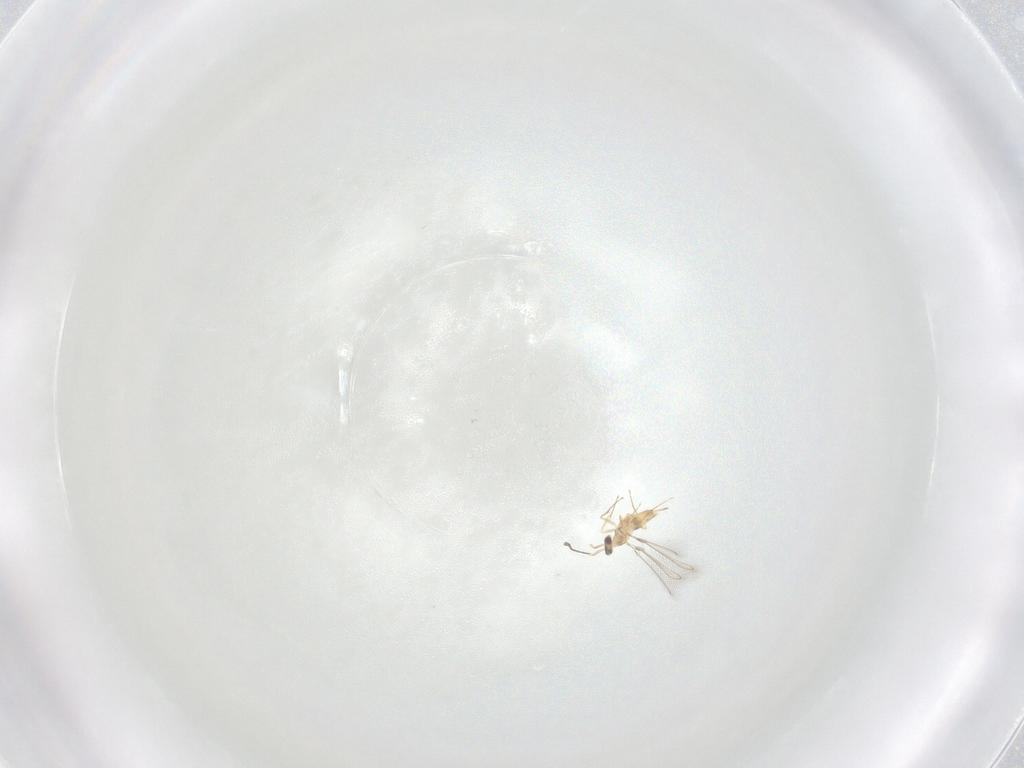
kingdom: Animalia
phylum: Arthropoda
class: Insecta
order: Hymenoptera
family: Mymaridae
